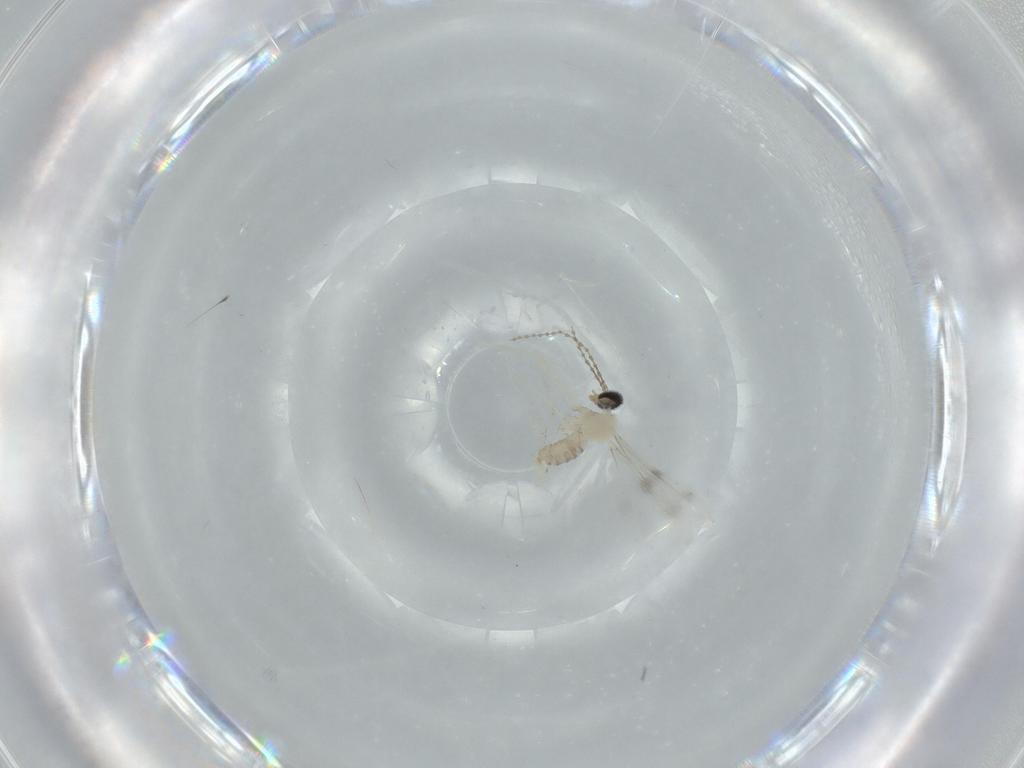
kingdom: Animalia
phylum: Arthropoda
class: Insecta
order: Diptera
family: Cecidomyiidae
